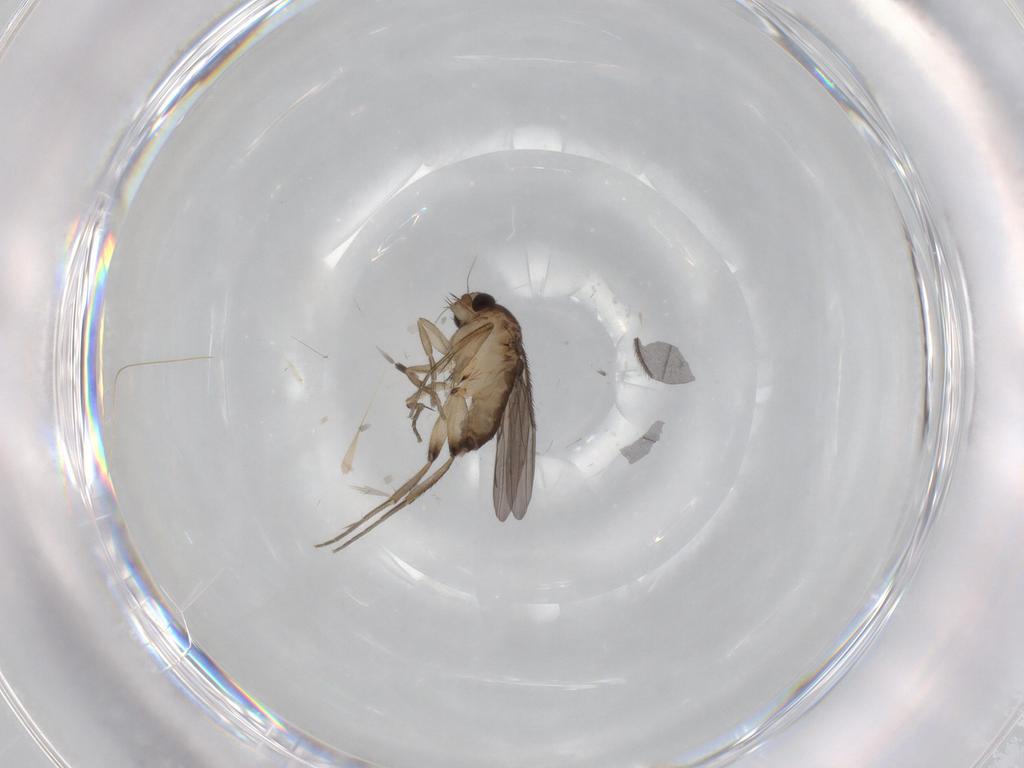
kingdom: Animalia
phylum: Arthropoda
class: Insecta
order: Diptera
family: Phoridae
